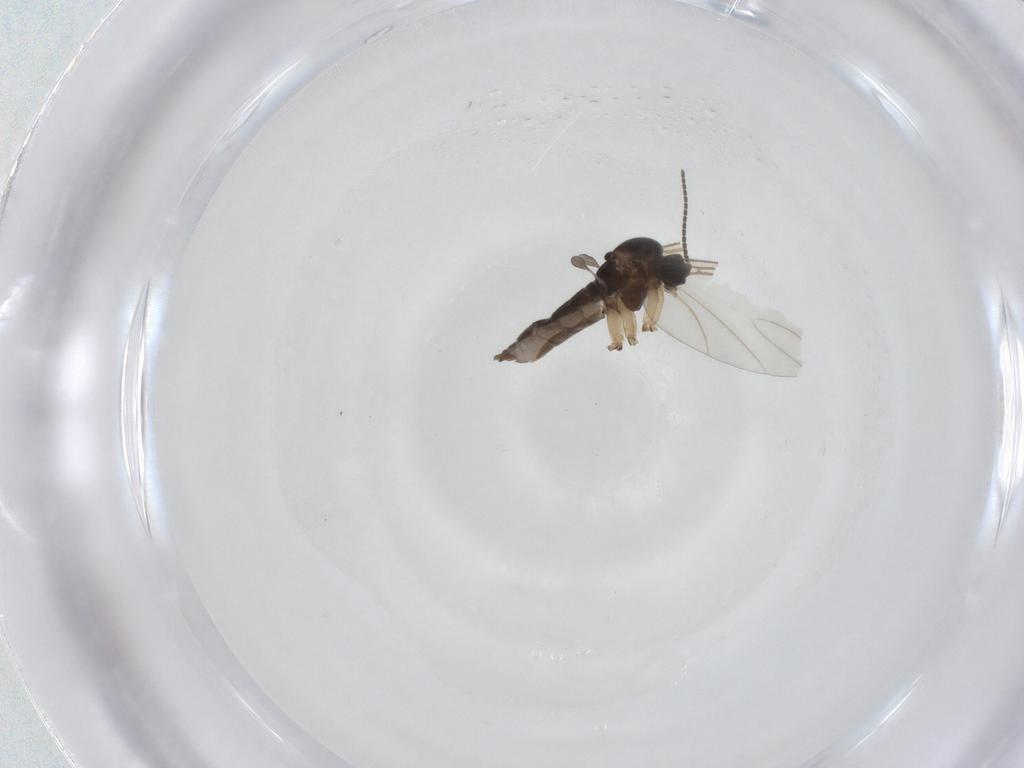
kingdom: Animalia
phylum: Arthropoda
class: Insecta
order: Diptera
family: Sciaridae
